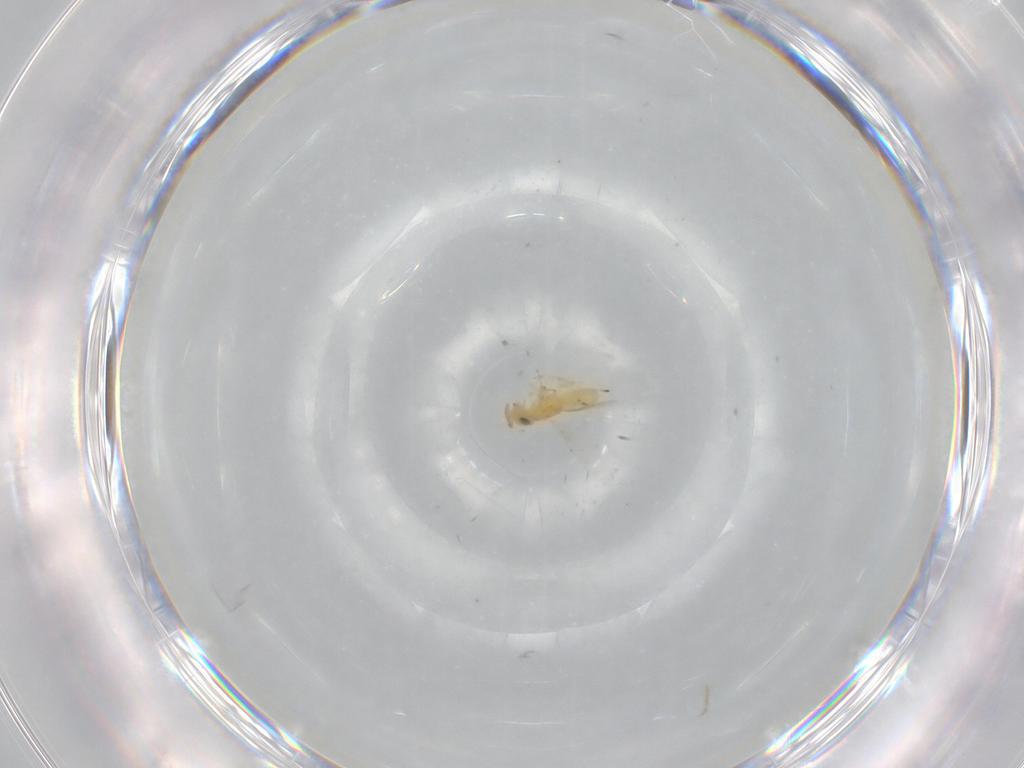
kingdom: Animalia
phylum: Arthropoda
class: Insecta
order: Hymenoptera
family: Encyrtidae
